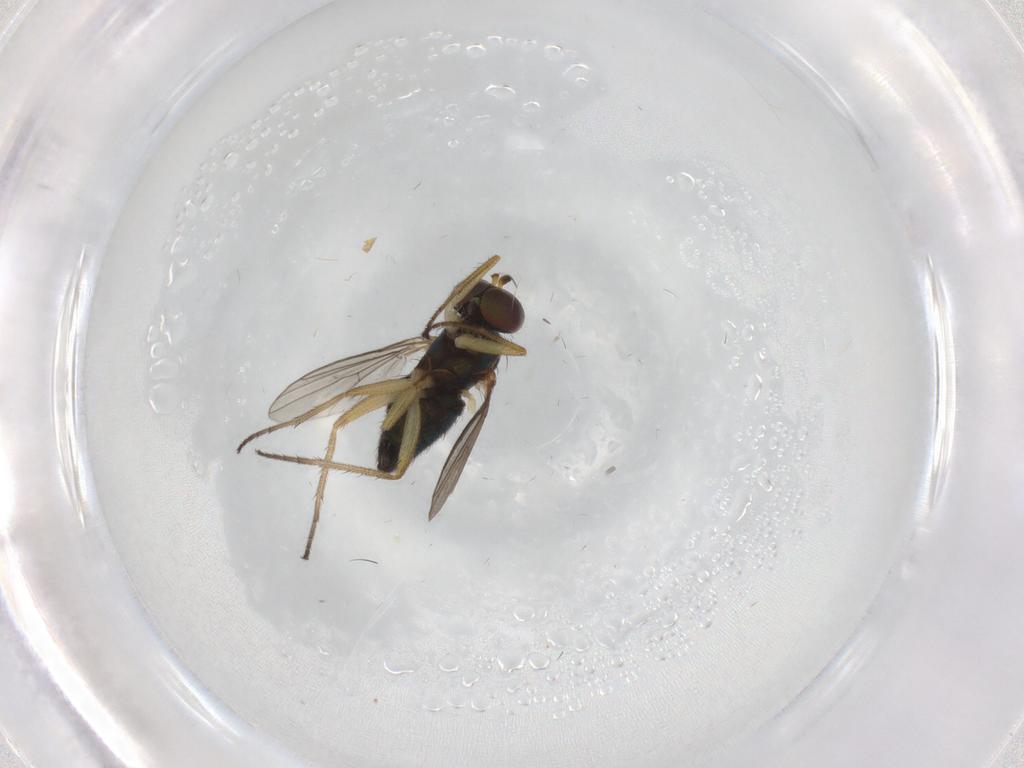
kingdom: Animalia
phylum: Arthropoda
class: Insecta
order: Diptera
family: Dolichopodidae
